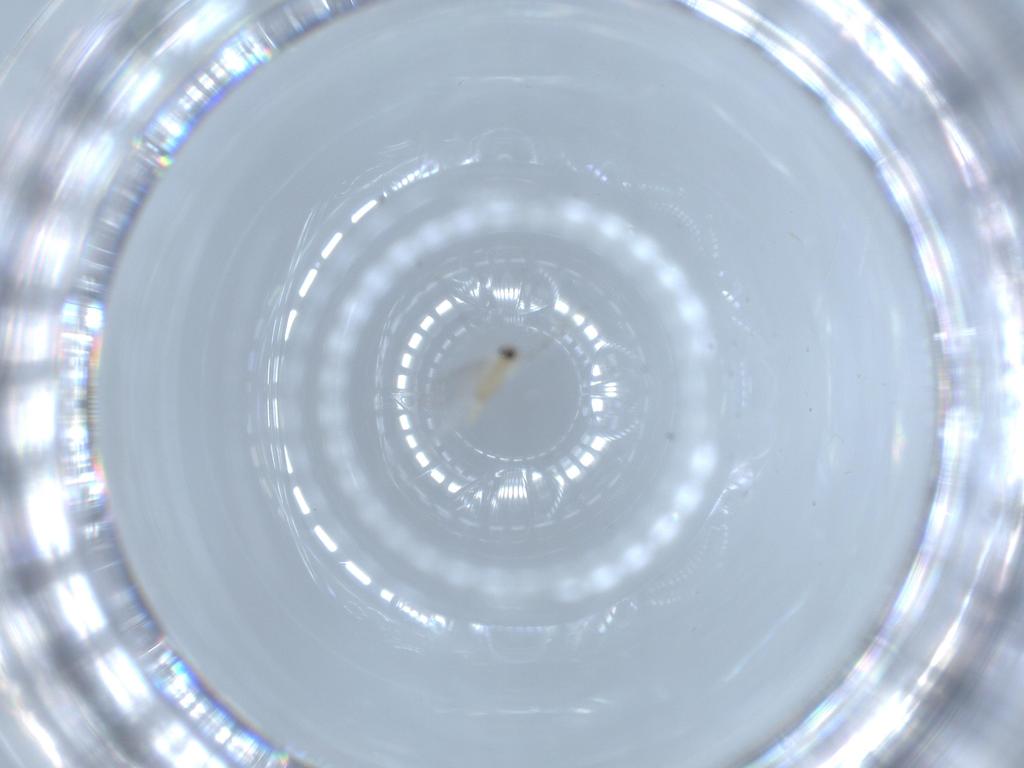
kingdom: Animalia
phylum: Arthropoda
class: Insecta
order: Diptera
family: Cecidomyiidae
